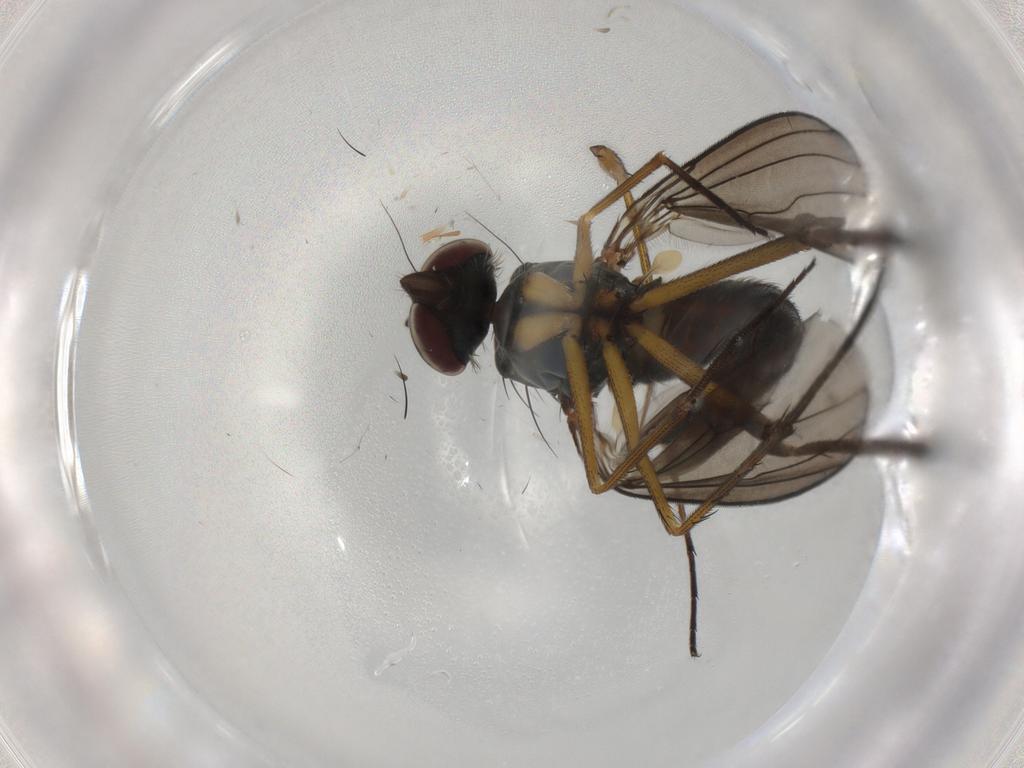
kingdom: Animalia
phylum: Arthropoda
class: Insecta
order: Diptera
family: Dolichopodidae
